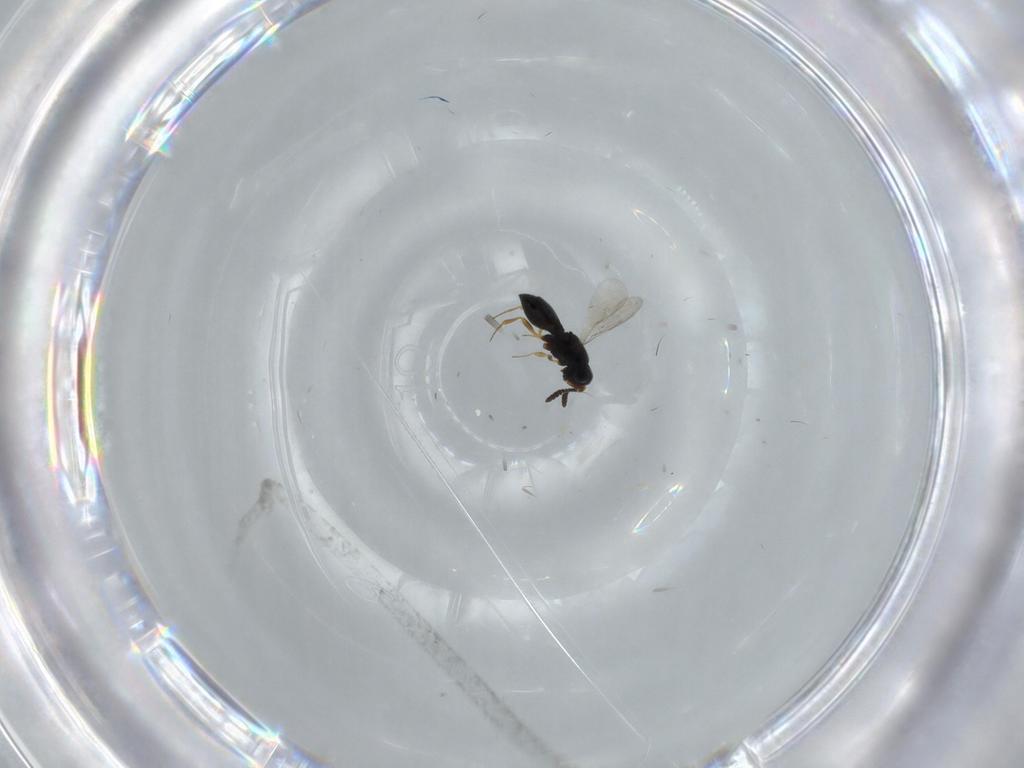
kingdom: Animalia
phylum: Arthropoda
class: Insecta
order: Hymenoptera
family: Scelionidae
